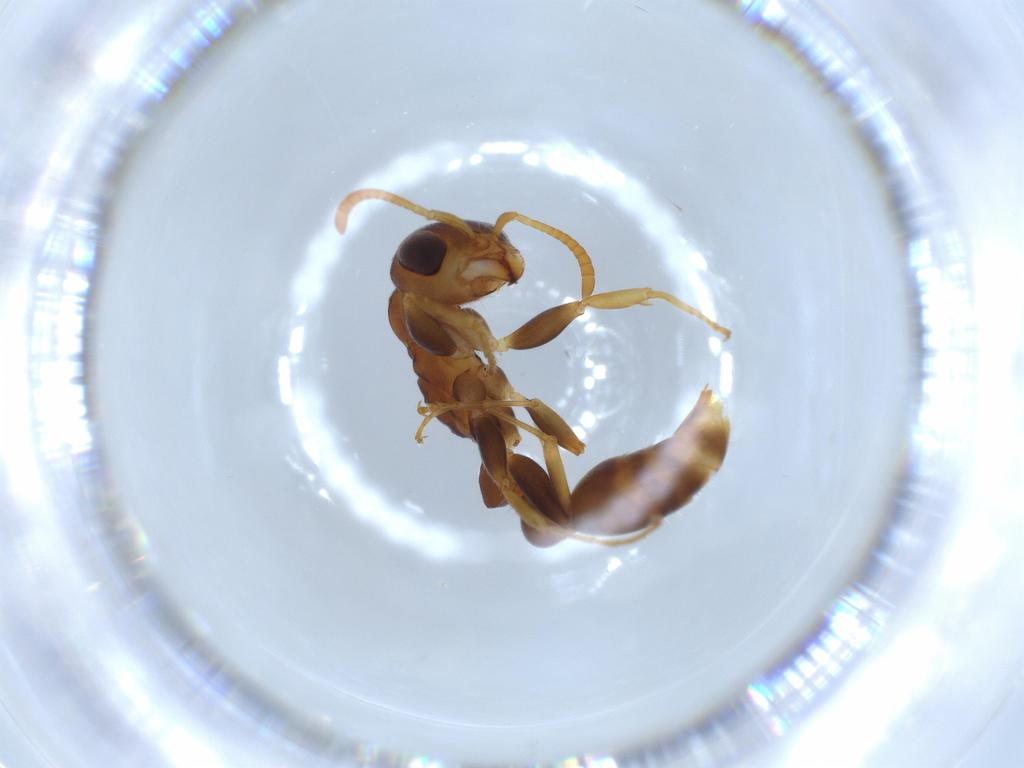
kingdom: Animalia
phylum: Arthropoda
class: Insecta
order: Hymenoptera
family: Formicidae
